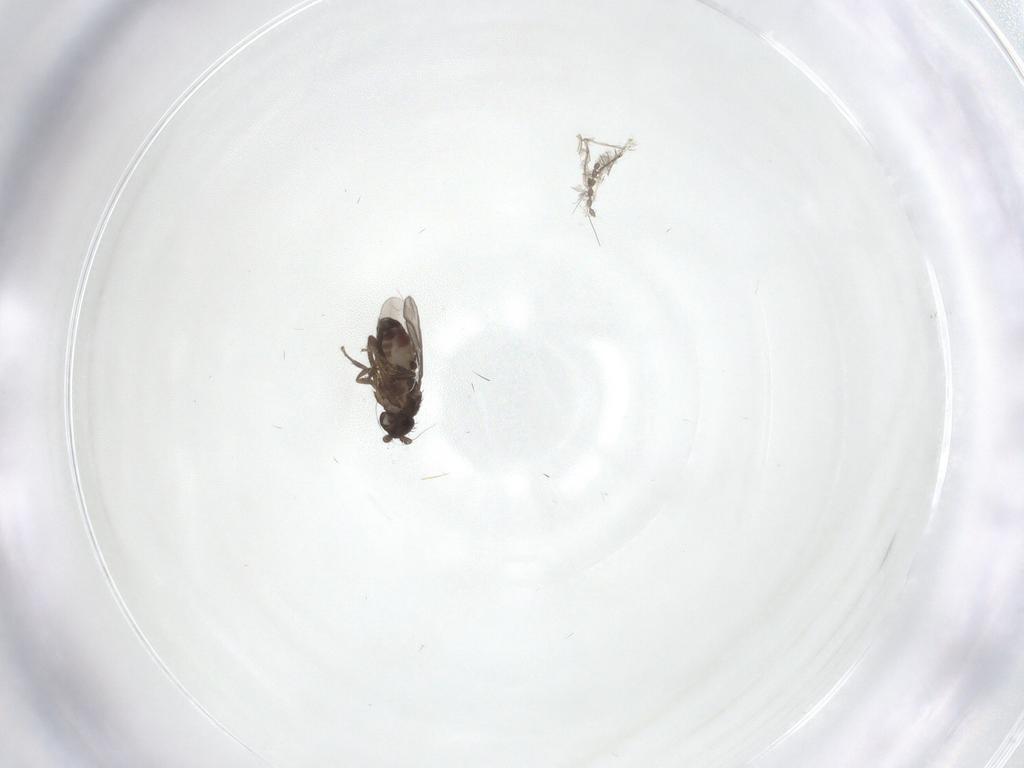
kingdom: Animalia
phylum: Arthropoda
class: Insecta
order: Diptera
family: Cecidomyiidae
